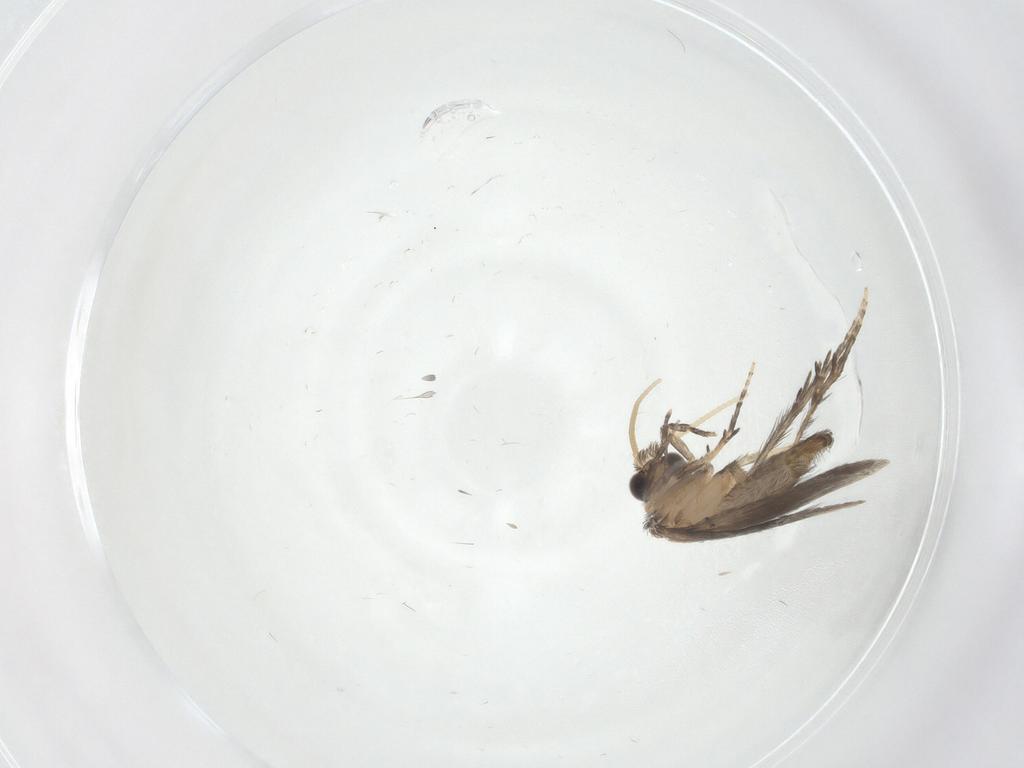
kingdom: Animalia
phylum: Arthropoda
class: Insecta
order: Trichoptera
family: Hydroptilidae
